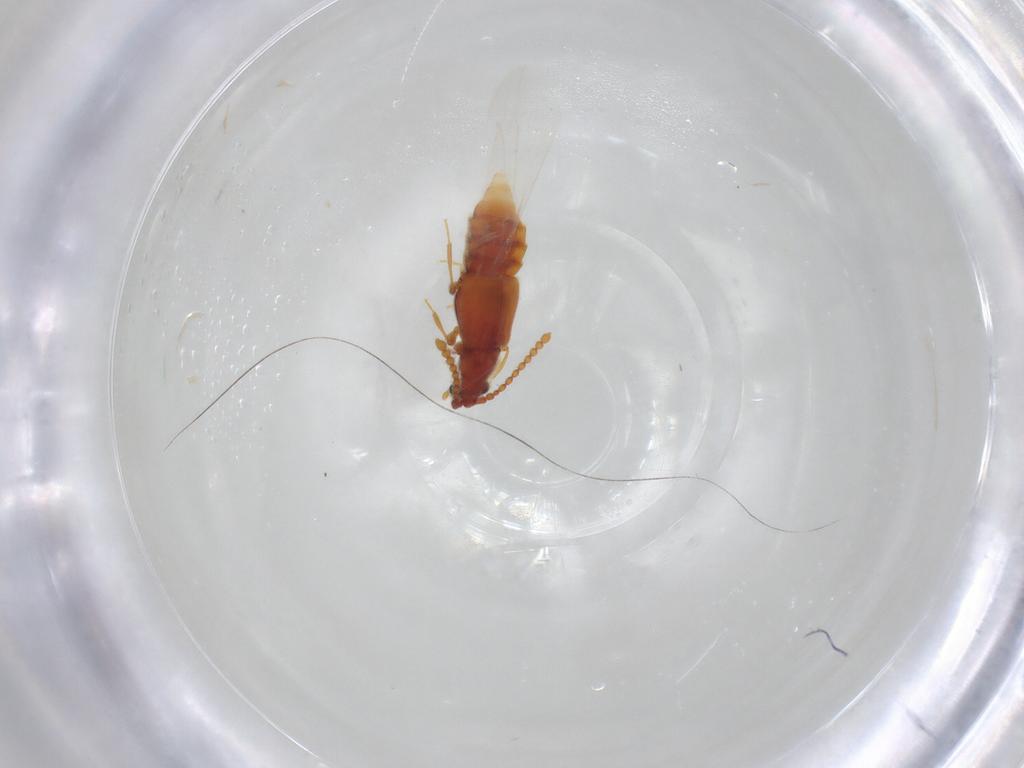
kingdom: Animalia
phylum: Arthropoda
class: Insecta
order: Coleoptera
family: Staphylinidae
